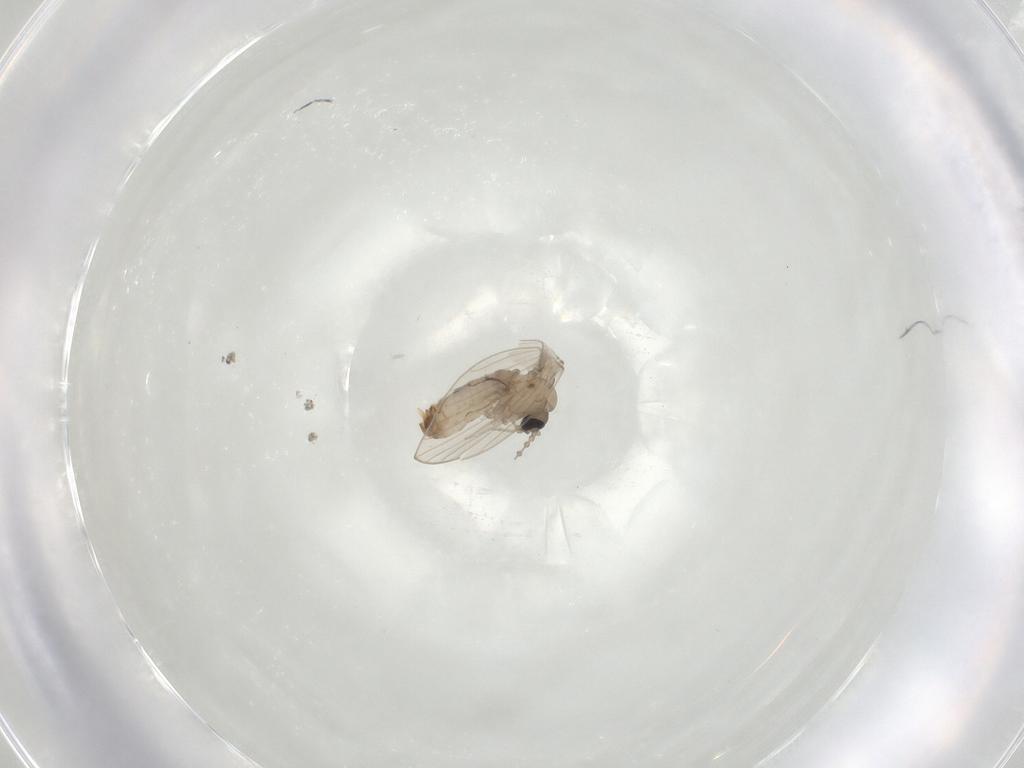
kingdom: Animalia
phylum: Arthropoda
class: Insecta
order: Diptera
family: Psychodidae
